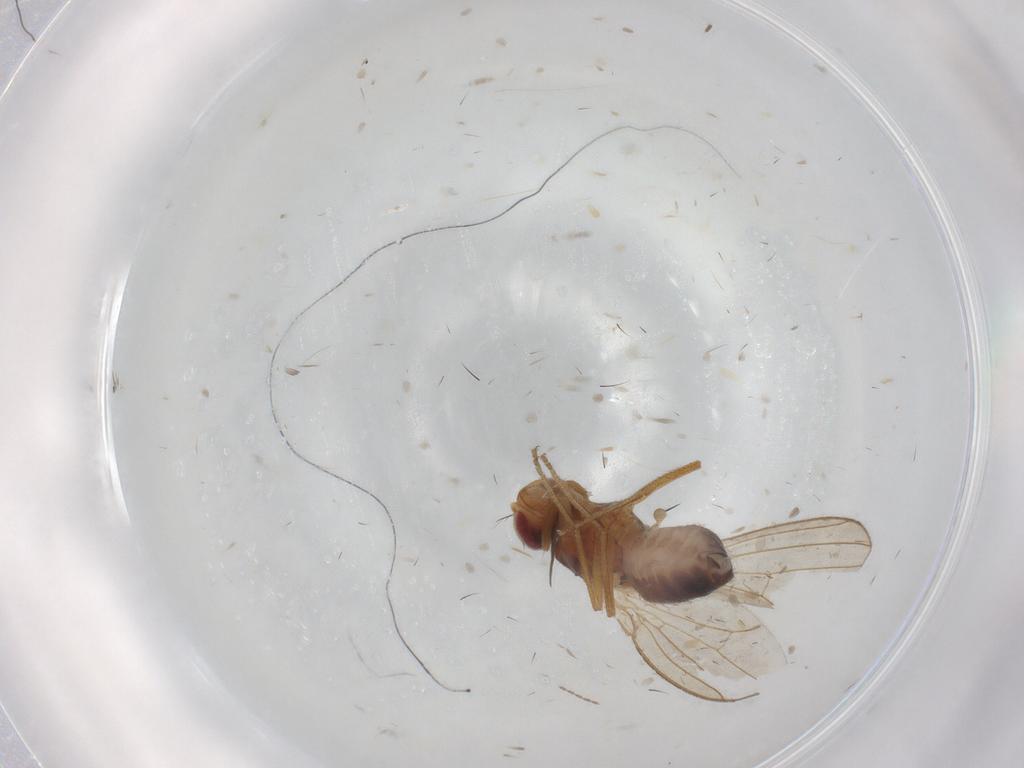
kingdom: Animalia
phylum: Arthropoda
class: Insecta
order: Diptera
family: Drosophilidae
